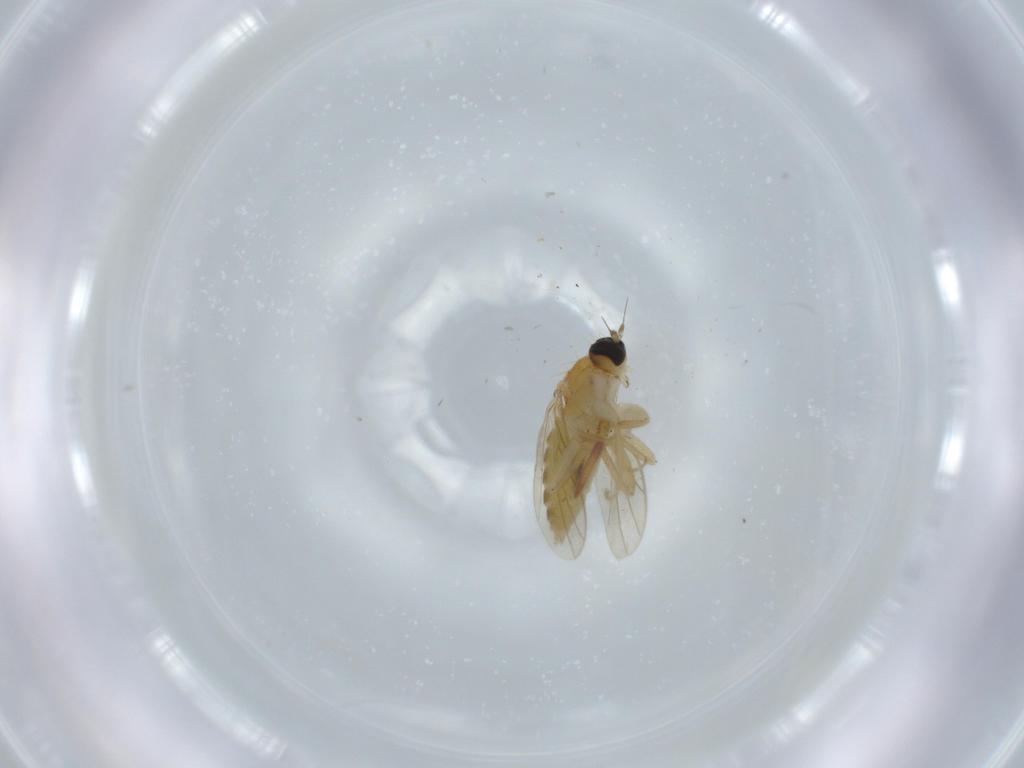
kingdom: Animalia
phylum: Arthropoda
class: Insecta
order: Diptera
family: Hybotidae
